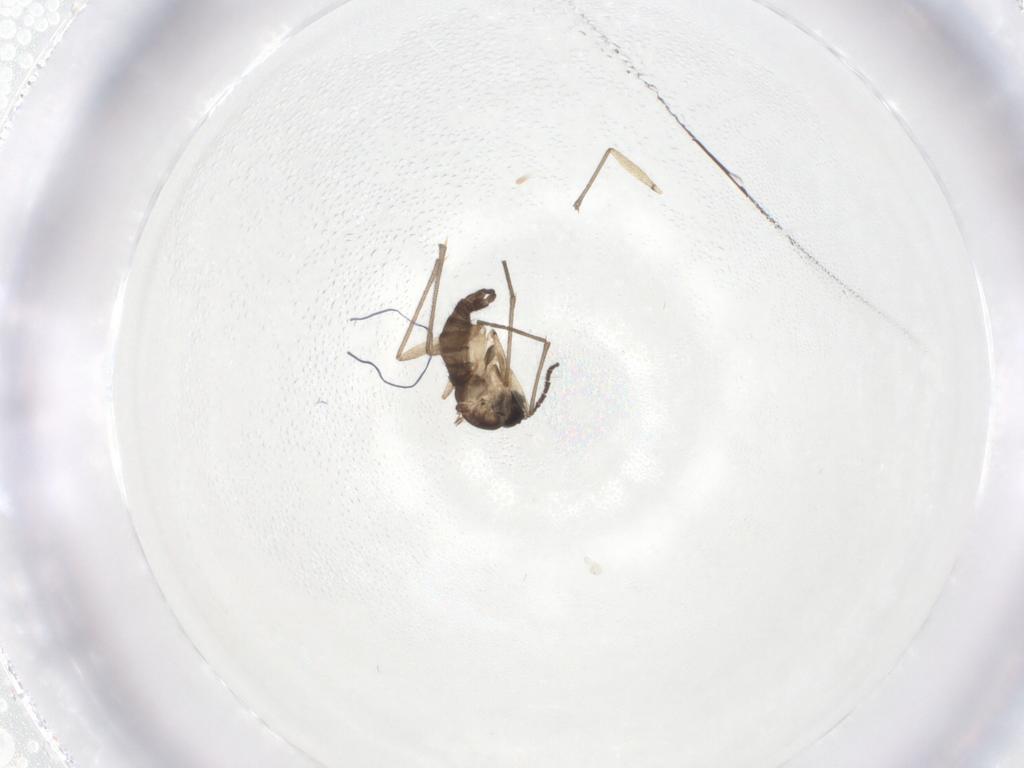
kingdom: Animalia
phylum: Arthropoda
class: Insecta
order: Diptera
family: Sciaridae
